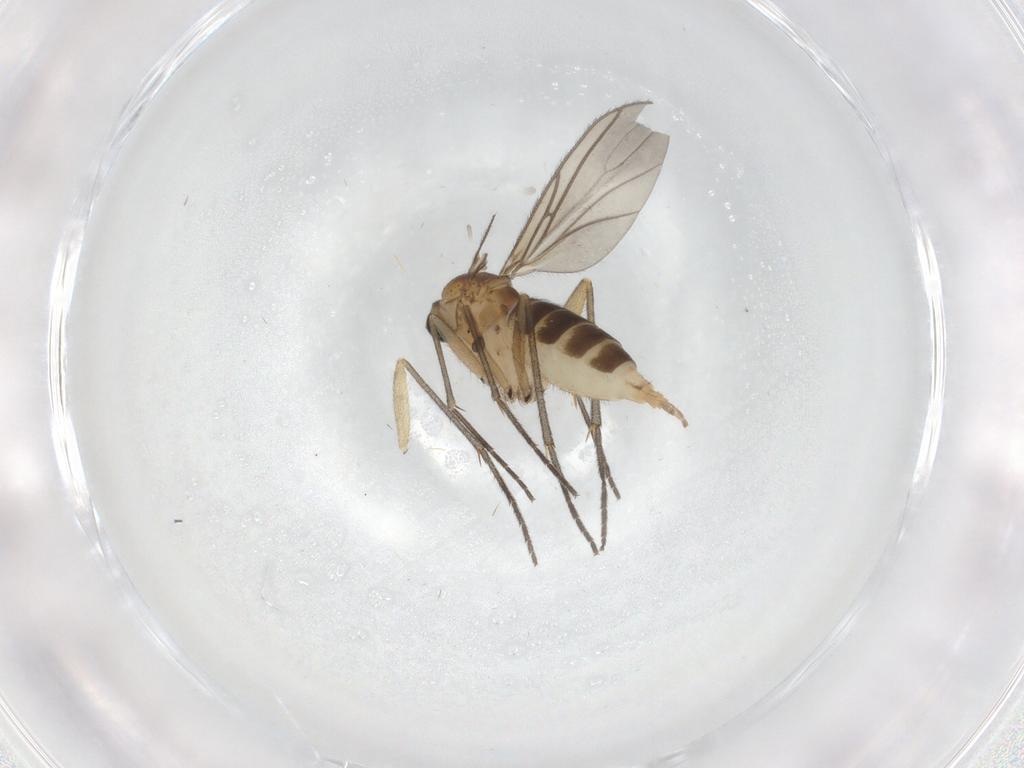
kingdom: Animalia
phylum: Arthropoda
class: Insecta
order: Diptera
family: Sciaridae
